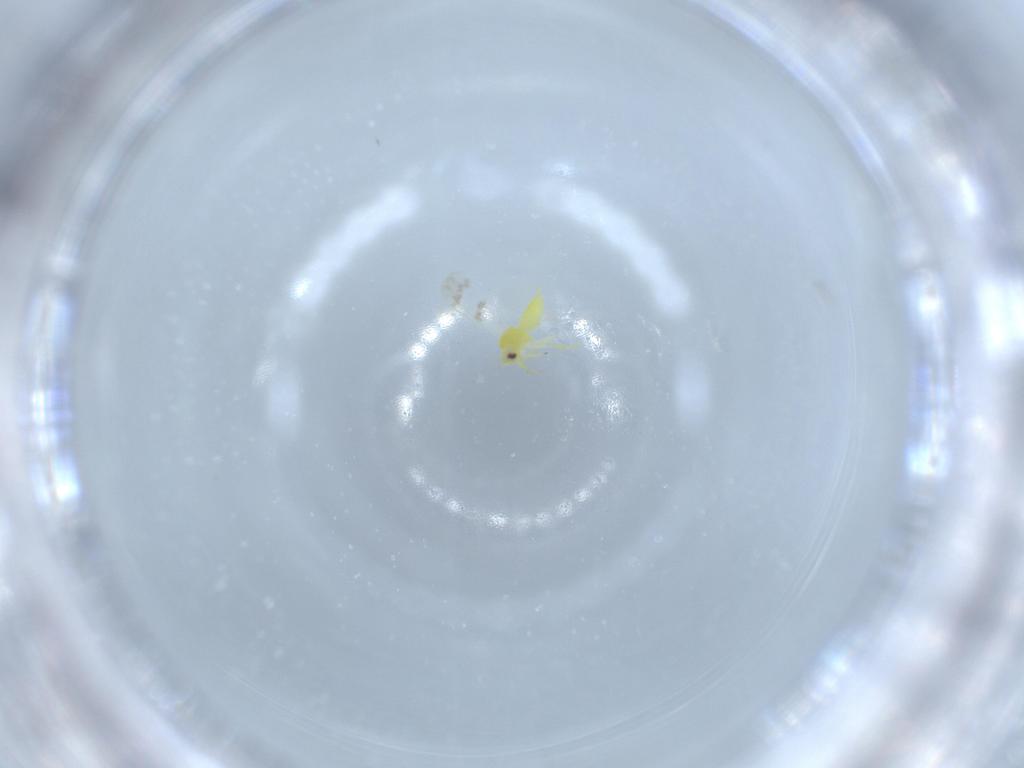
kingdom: Animalia
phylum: Arthropoda
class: Insecta
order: Hemiptera
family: Aleyrodidae
